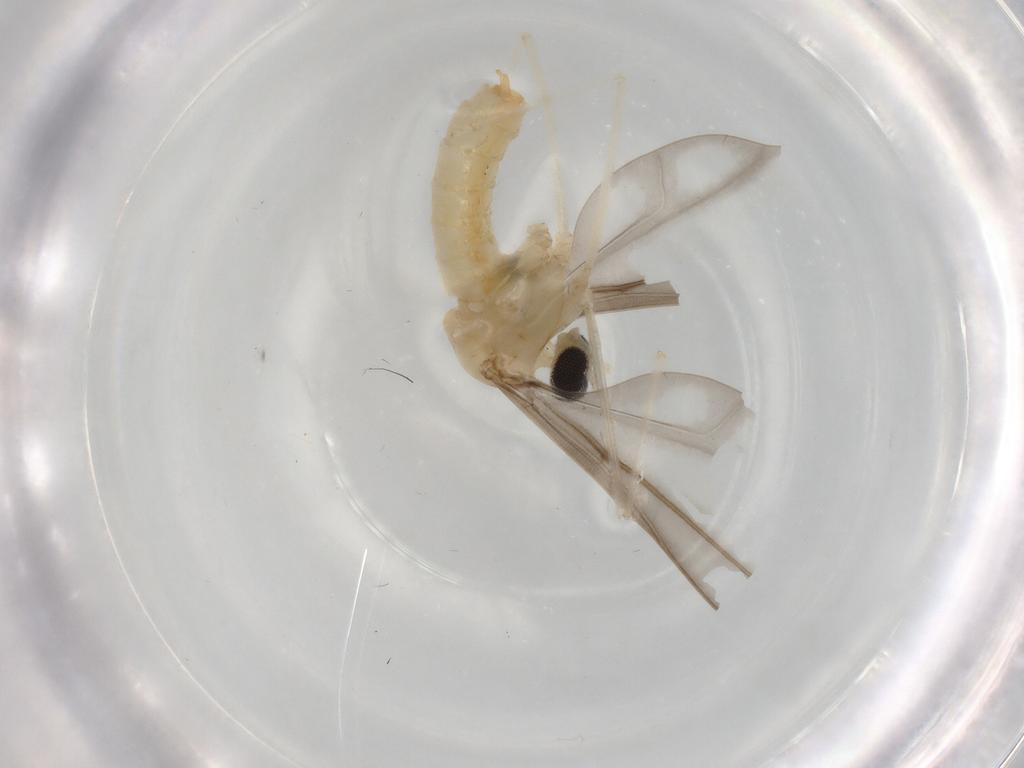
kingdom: Animalia
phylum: Arthropoda
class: Insecta
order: Diptera
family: Cecidomyiidae
